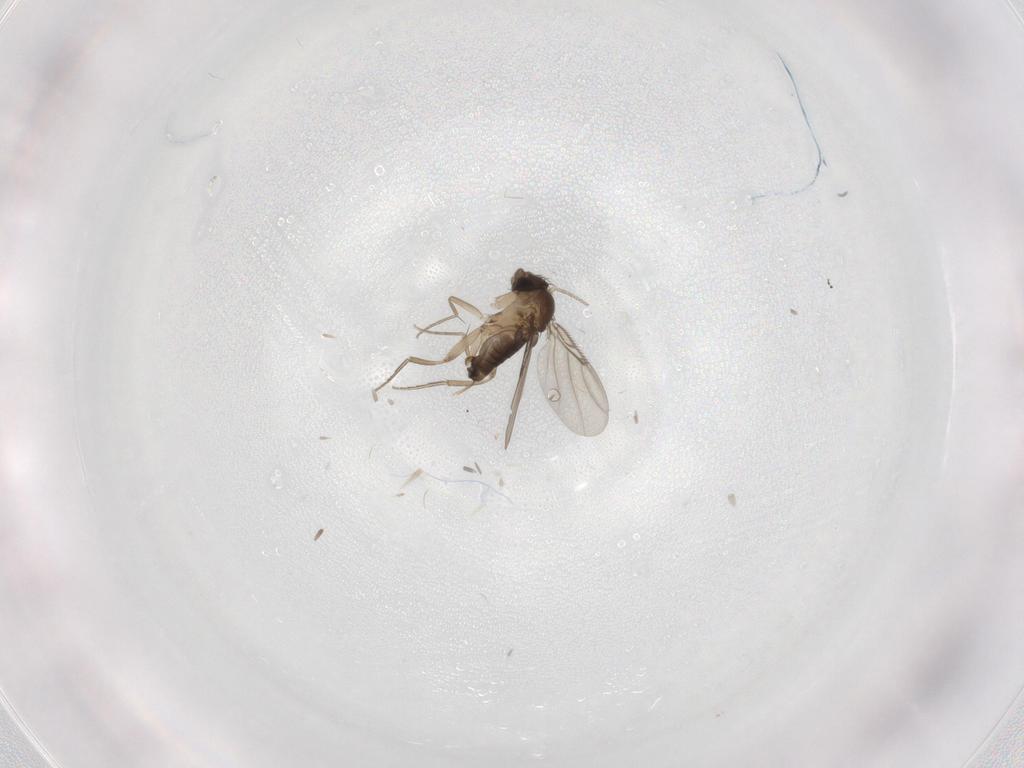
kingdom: Animalia
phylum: Arthropoda
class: Insecta
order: Diptera
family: Phoridae
